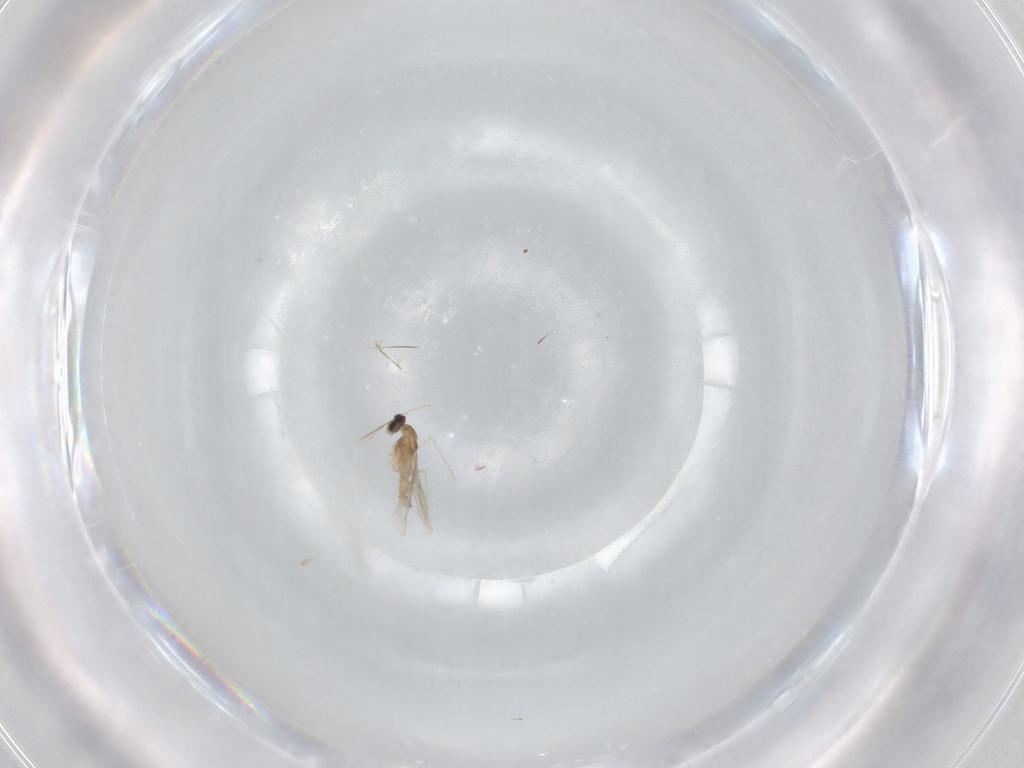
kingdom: Animalia
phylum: Arthropoda
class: Insecta
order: Diptera
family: Cecidomyiidae
